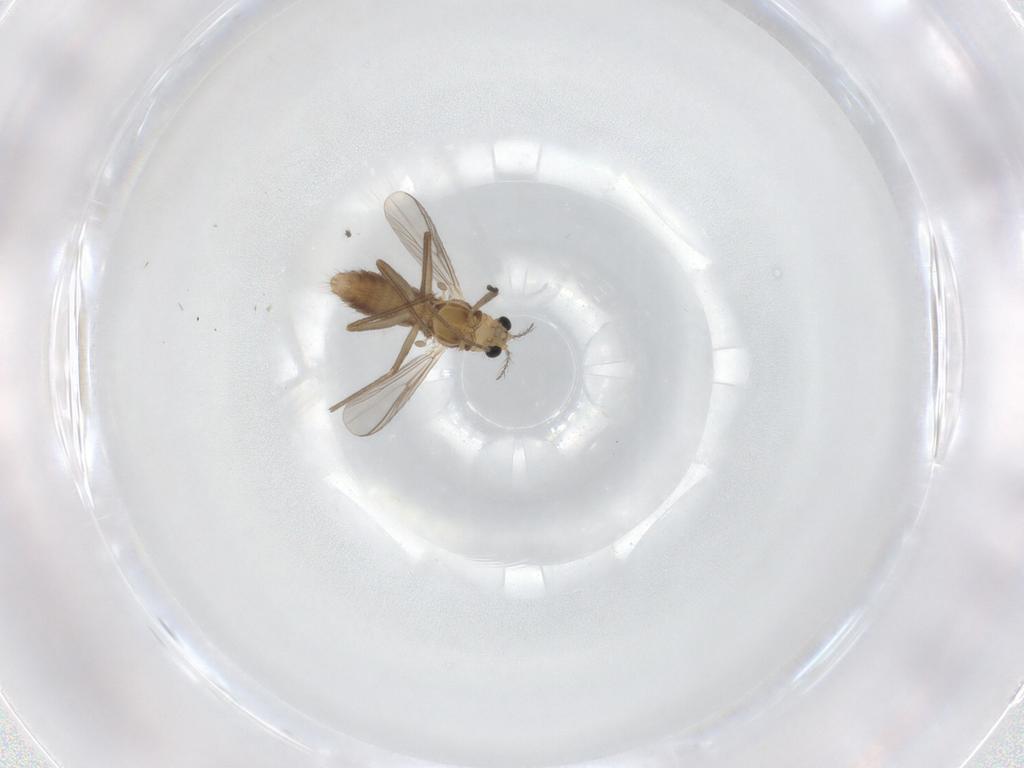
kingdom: Animalia
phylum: Arthropoda
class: Insecta
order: Diptera
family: Chironomidae
